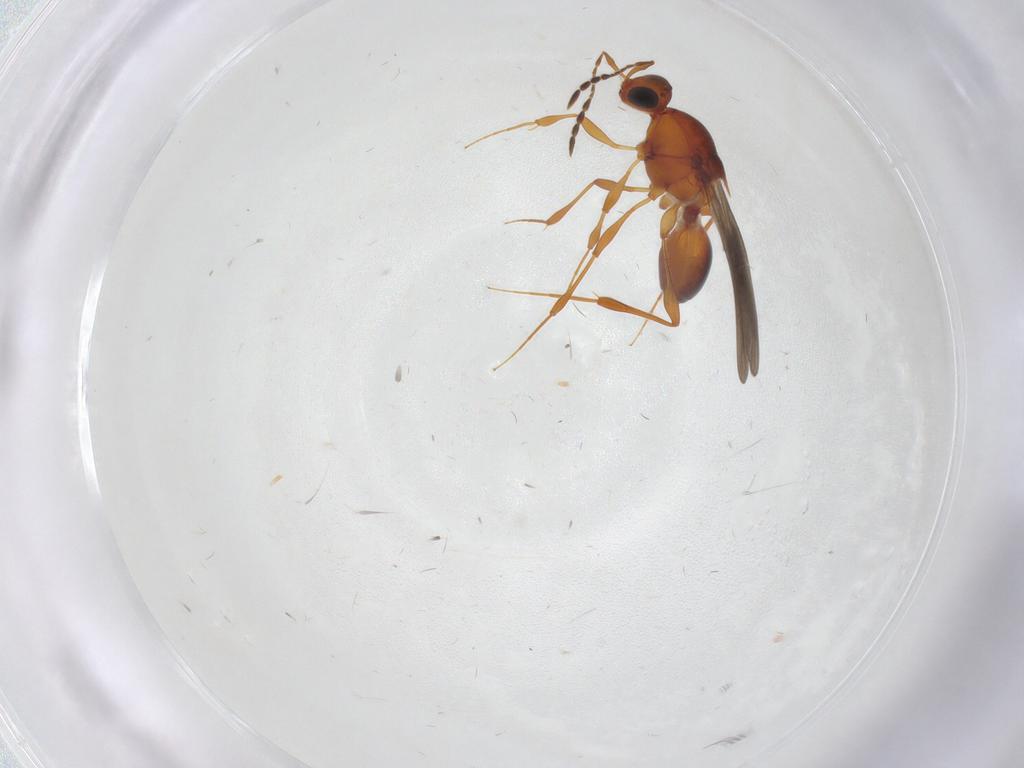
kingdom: Animalia
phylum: Arthropoda
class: Insecta
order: Hymenoptera
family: Platygastridae
